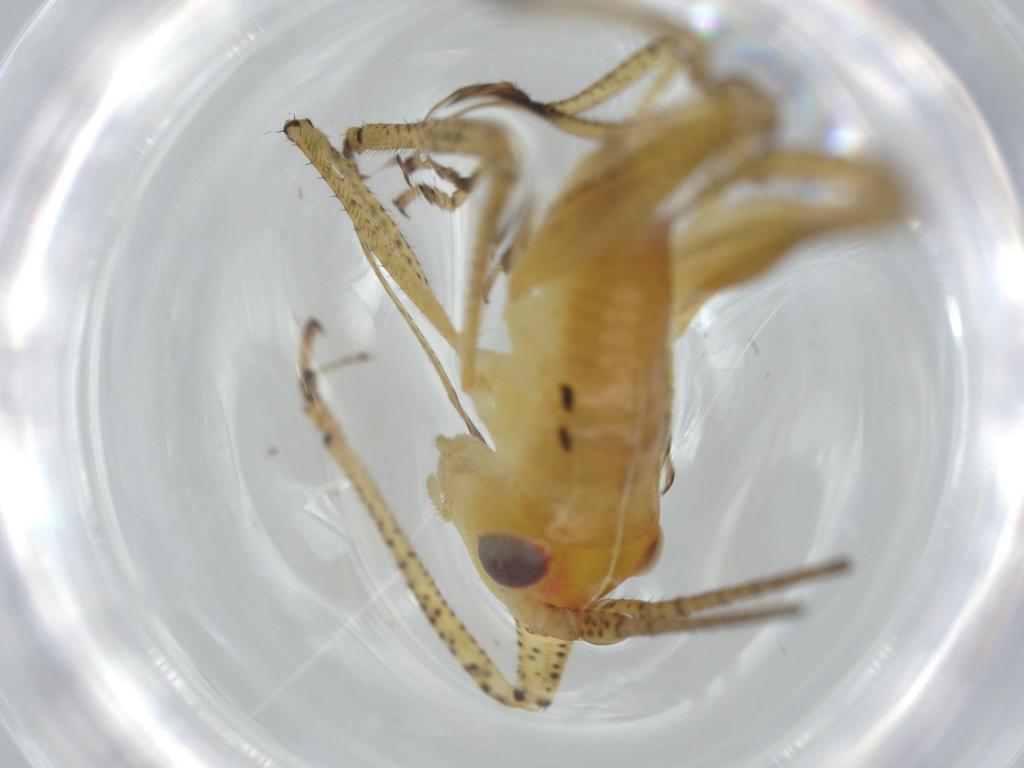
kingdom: Animalia
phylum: Arthropoda
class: Insecta
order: Orthoptera
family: Tettigoniidae
